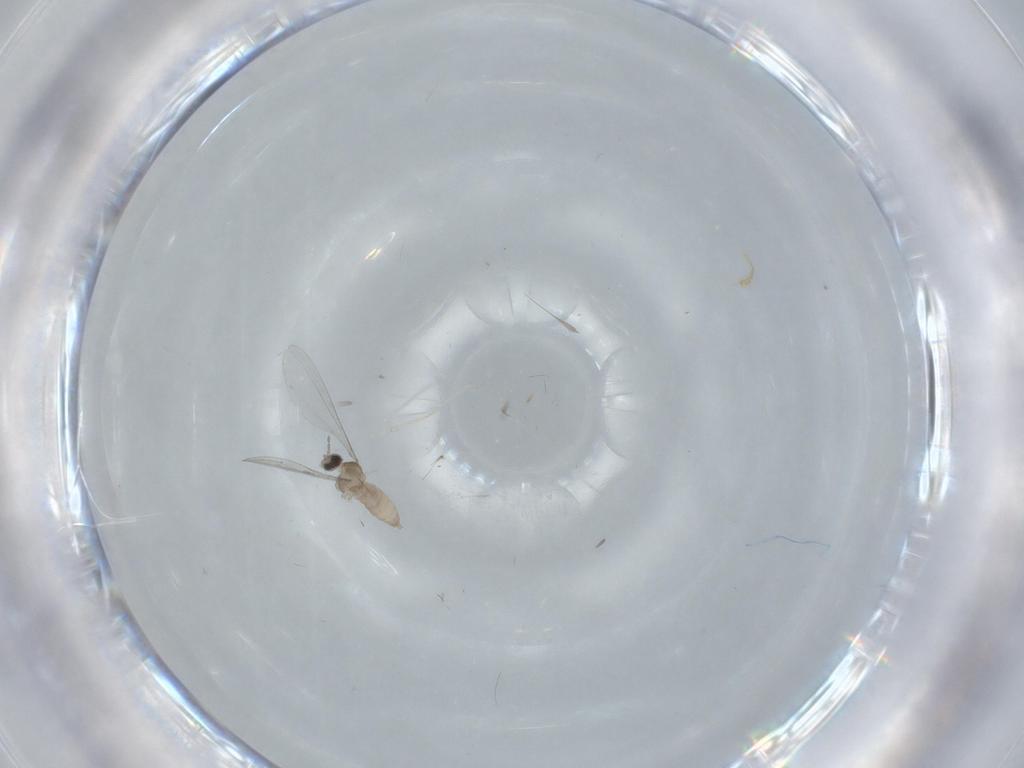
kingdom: Animalia
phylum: Arthropoda
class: Insecta
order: Diptera
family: Cecidomyiidae
